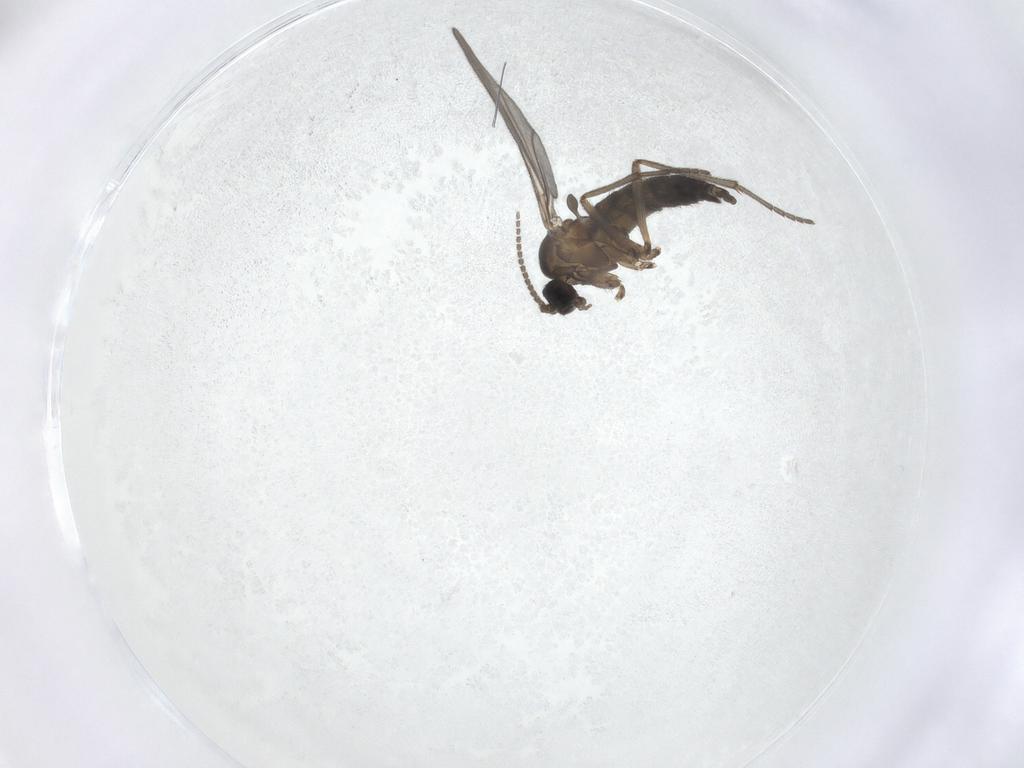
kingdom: Animalia
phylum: Arthropoda
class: Insecta
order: Diptera
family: Sciaridae
